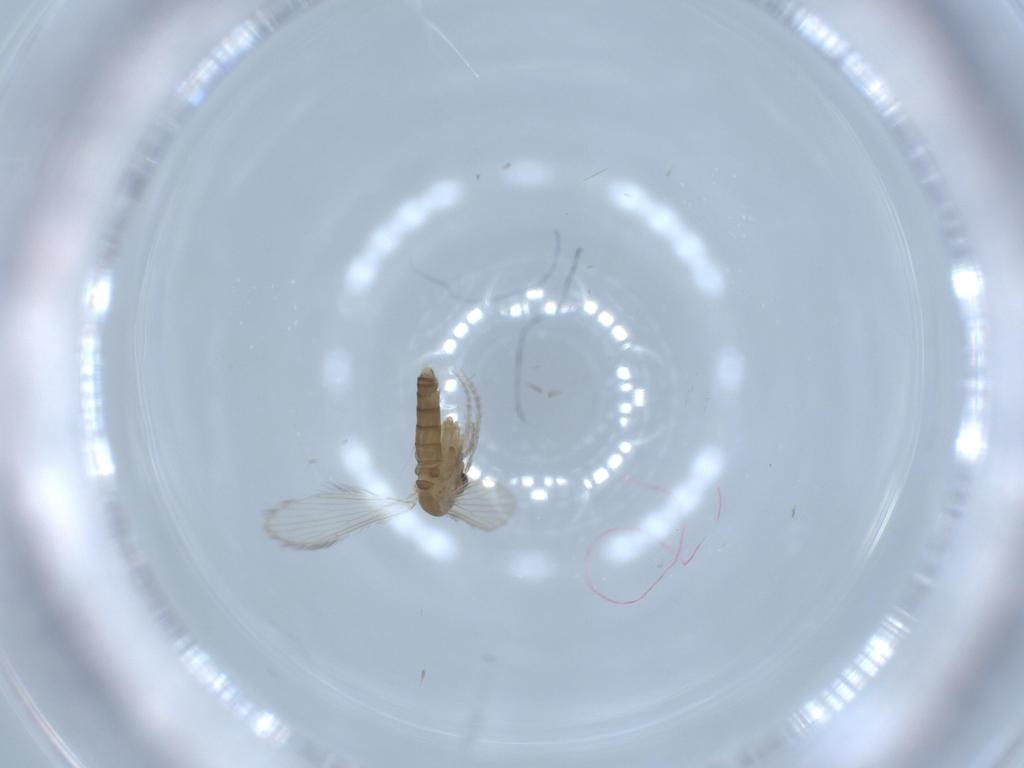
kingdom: Animalia
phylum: Arthropoda
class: Insecta
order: Diptera
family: Psychodidae
